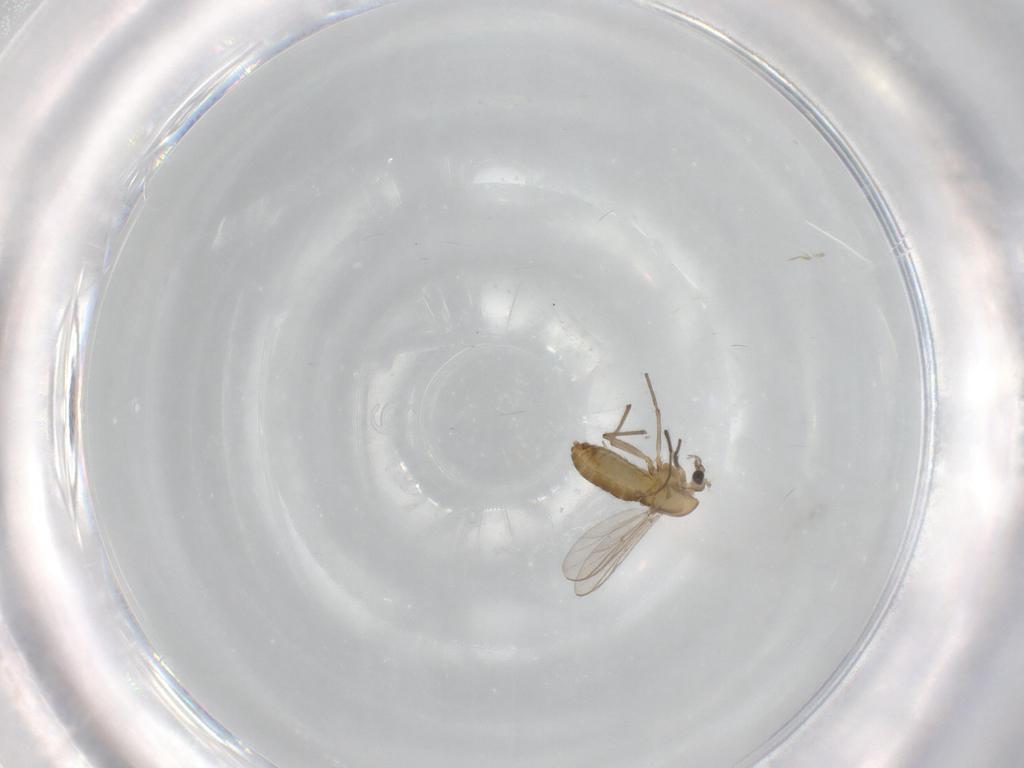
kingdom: Animalia
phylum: Arthropoda
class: Insecta
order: Diptera
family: Chironomidae
